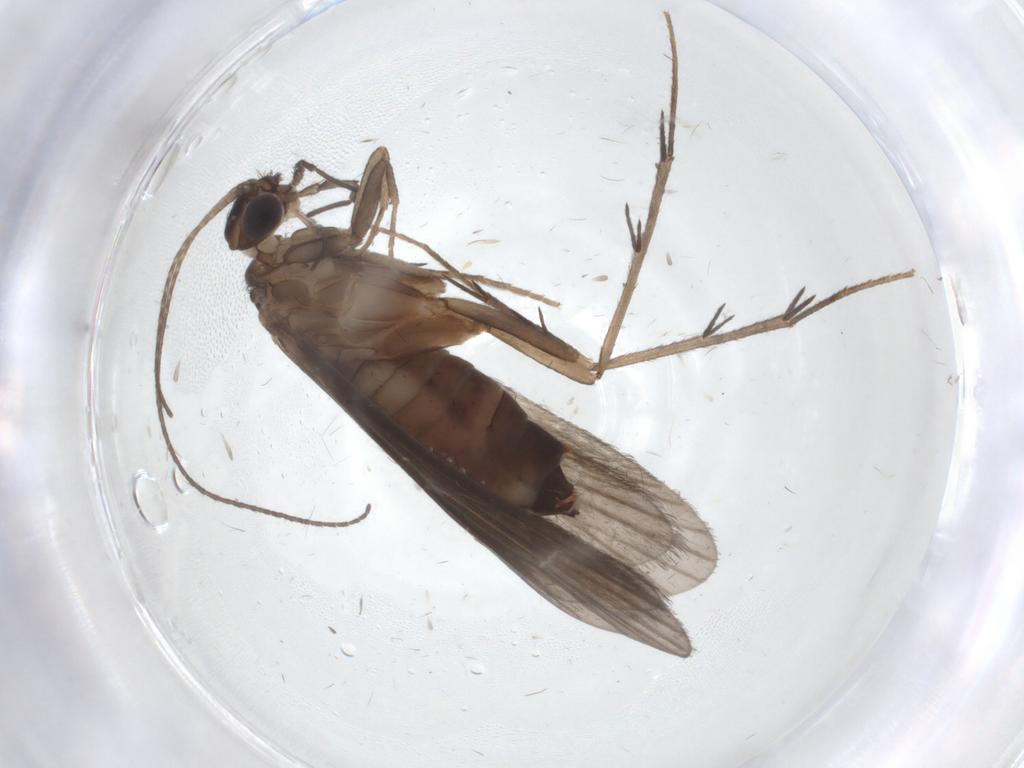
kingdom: Animalia
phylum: Arthropoda
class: Insecta
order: Trichoptera
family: Philopotamidae
